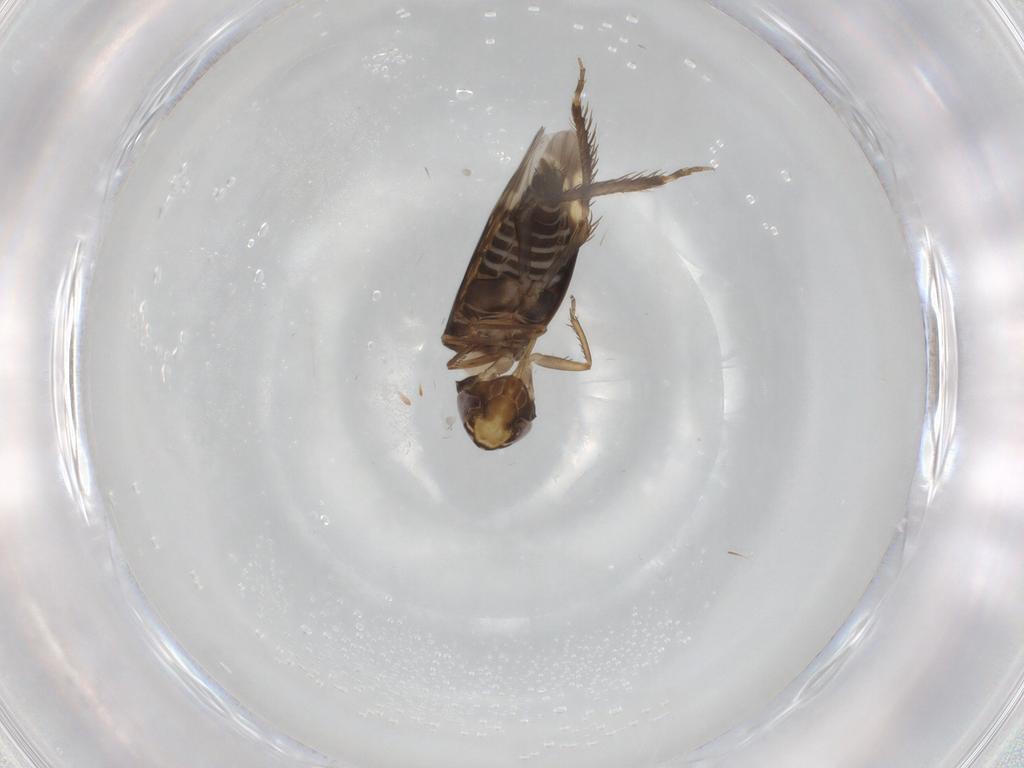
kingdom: Animalia
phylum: Arthropoda
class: Insecta
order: Hemiptera
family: Cicadellidae
